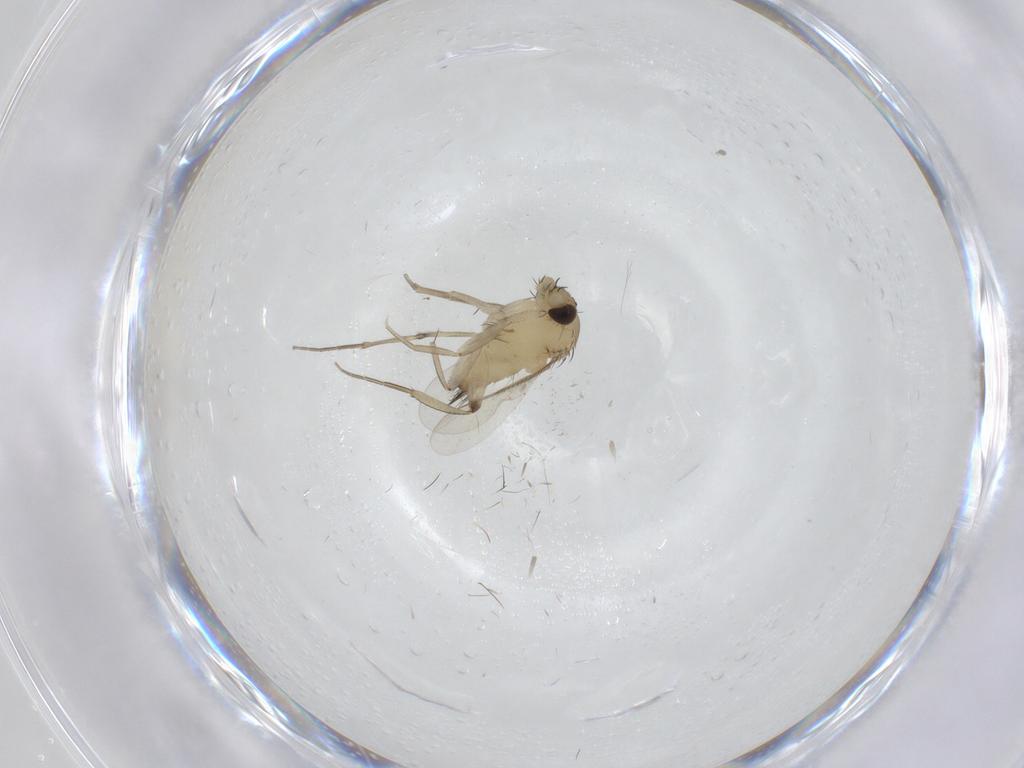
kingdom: Animalia
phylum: Arthropoda
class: Insecta
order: Diptera
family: Phoridae
